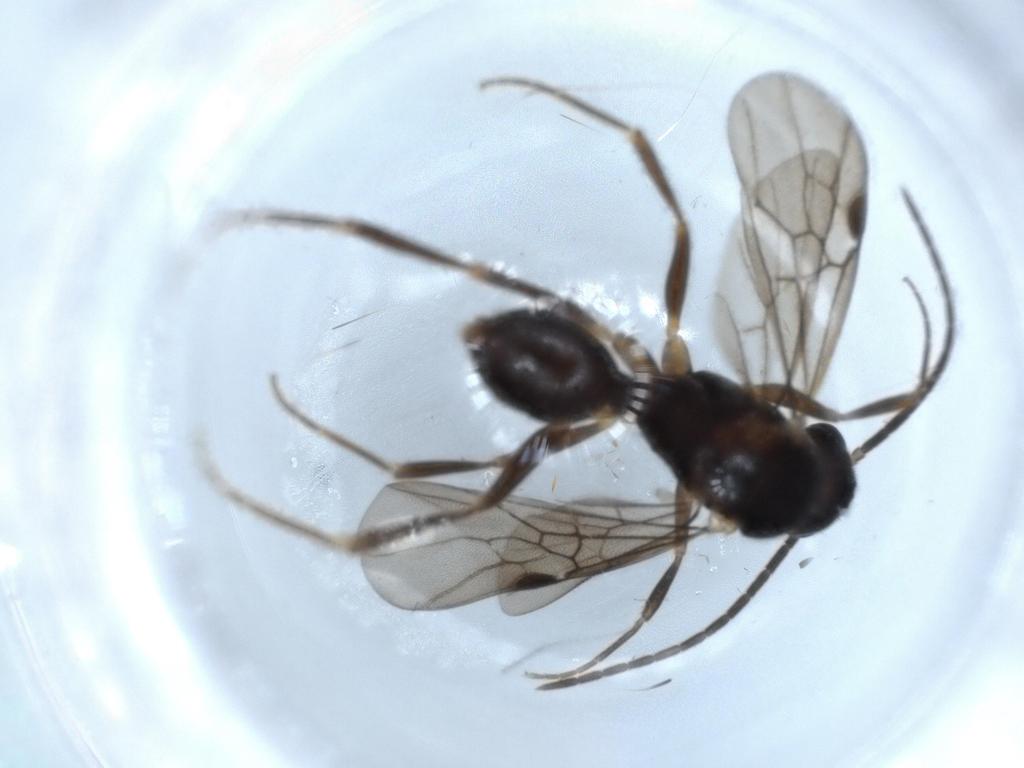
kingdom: Animalia
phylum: Arthropoda
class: Insecta
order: Hymenoptera
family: Formicidae
